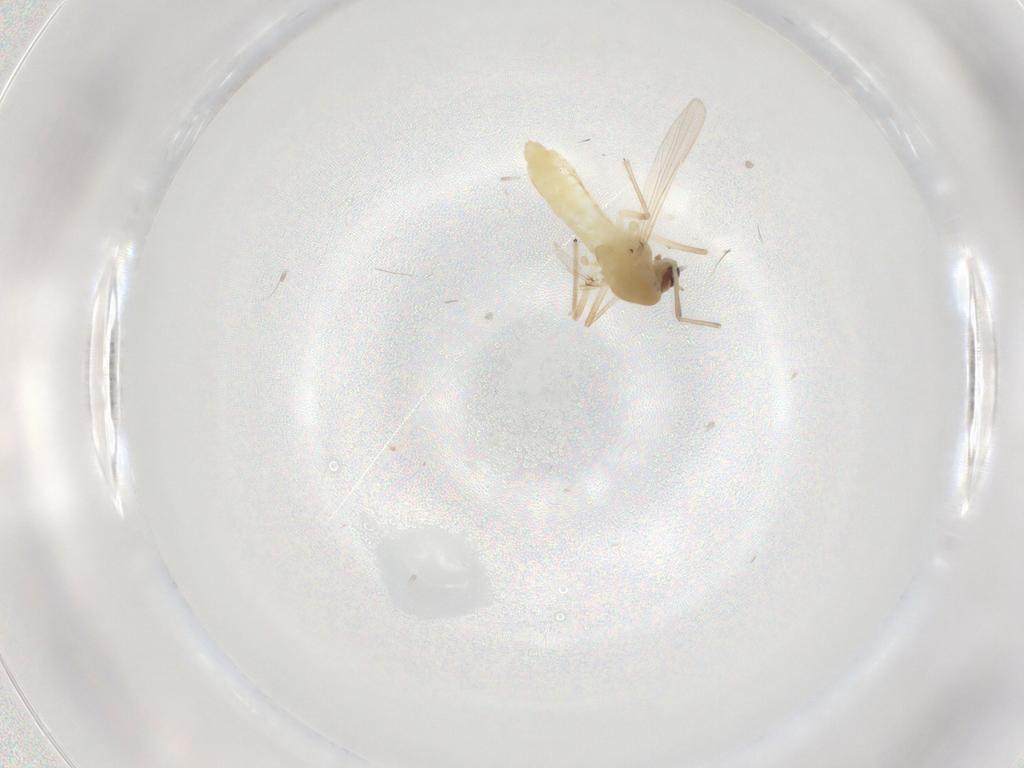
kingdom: Animalia
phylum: Arthropoda
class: Insecta
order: Diptera
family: Chironomidae
